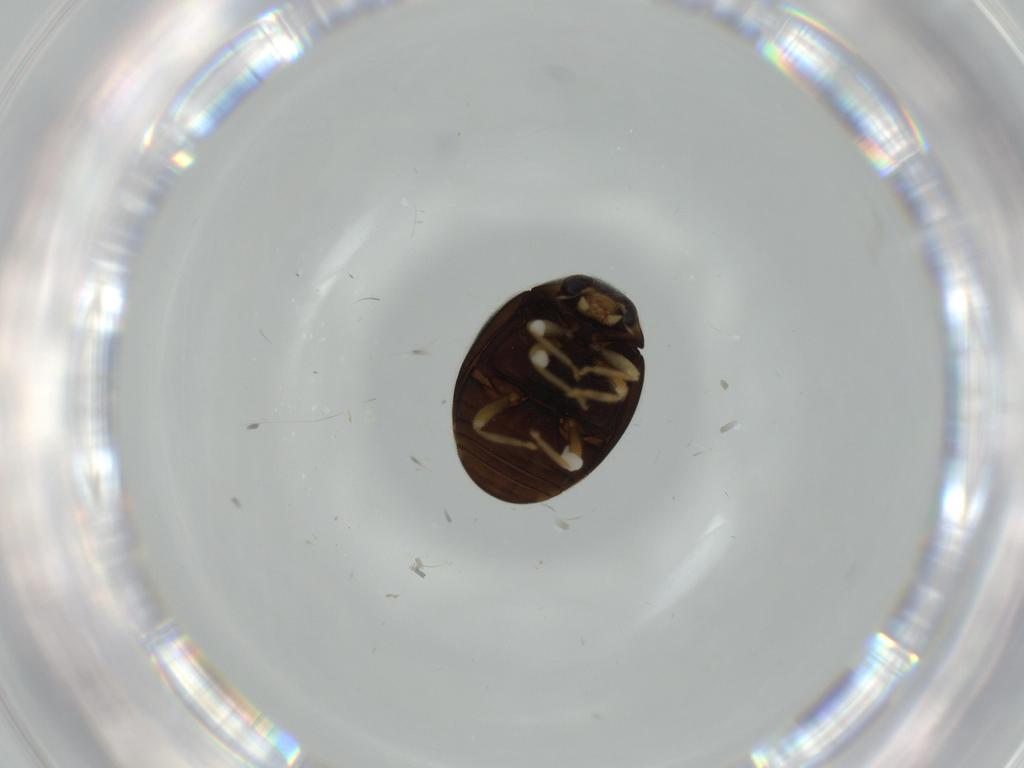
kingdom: Animalia
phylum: Arthropoda
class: Insecta
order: Coleoptera
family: Coccinellidae
